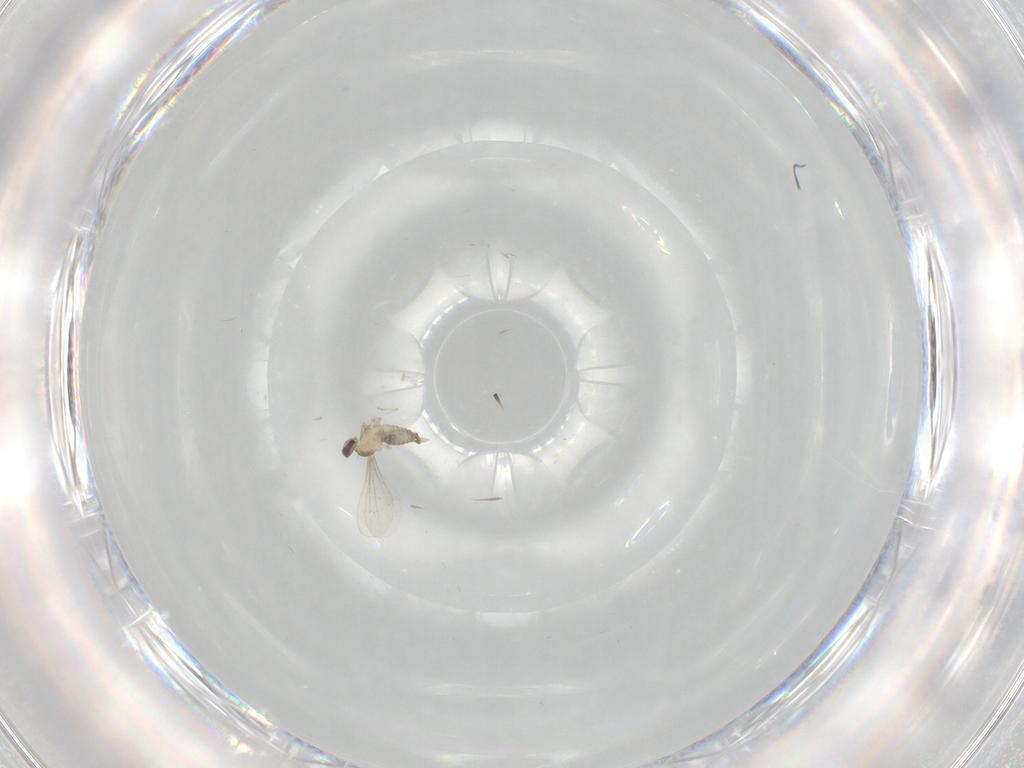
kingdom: Animalia
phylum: Arthropoda
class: Insecta
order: Diptera
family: Cecidomyiidae
